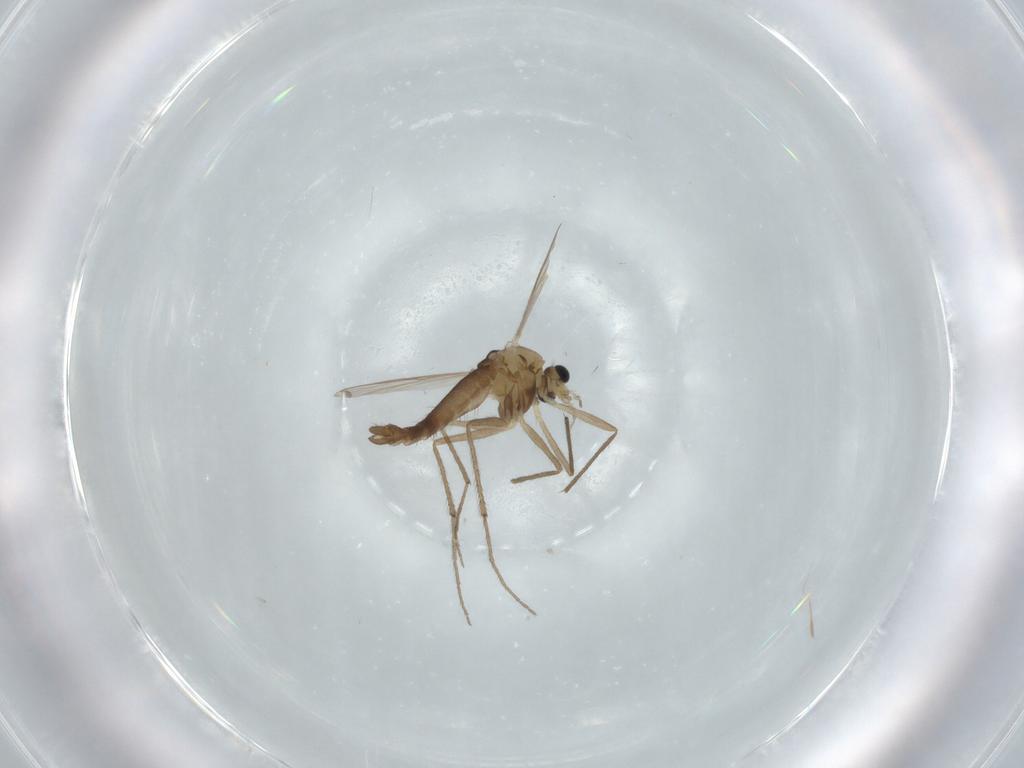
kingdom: Animalia
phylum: Arthropoda
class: Insecta
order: Diptera
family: Chironomidae
